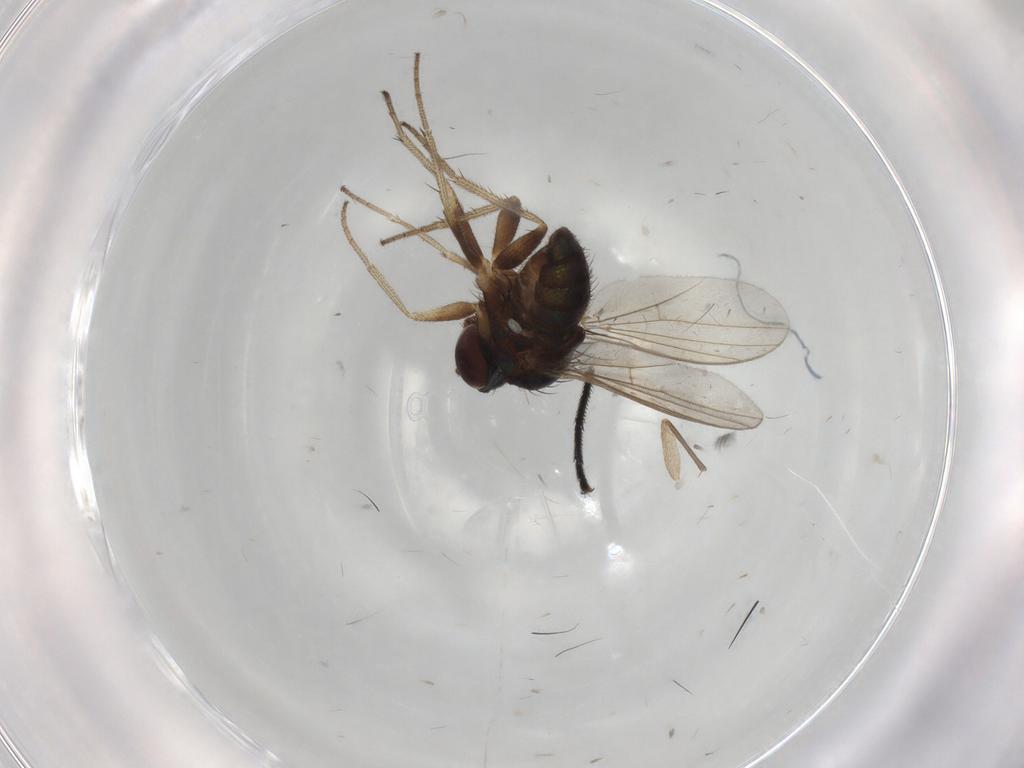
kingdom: Animalia
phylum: Arthropoda
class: Insecta
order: Diptera
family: Dolichopodidae
